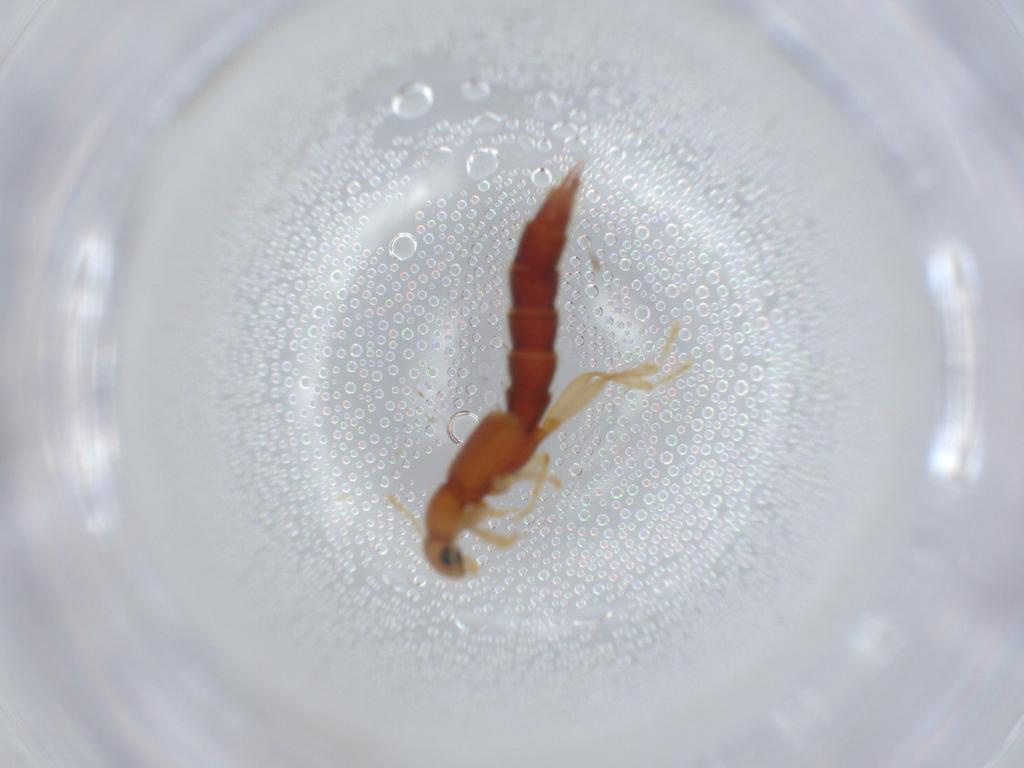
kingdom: Animalia
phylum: Arthropoda
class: Insecta
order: Coleoptera
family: Staphylinidae
